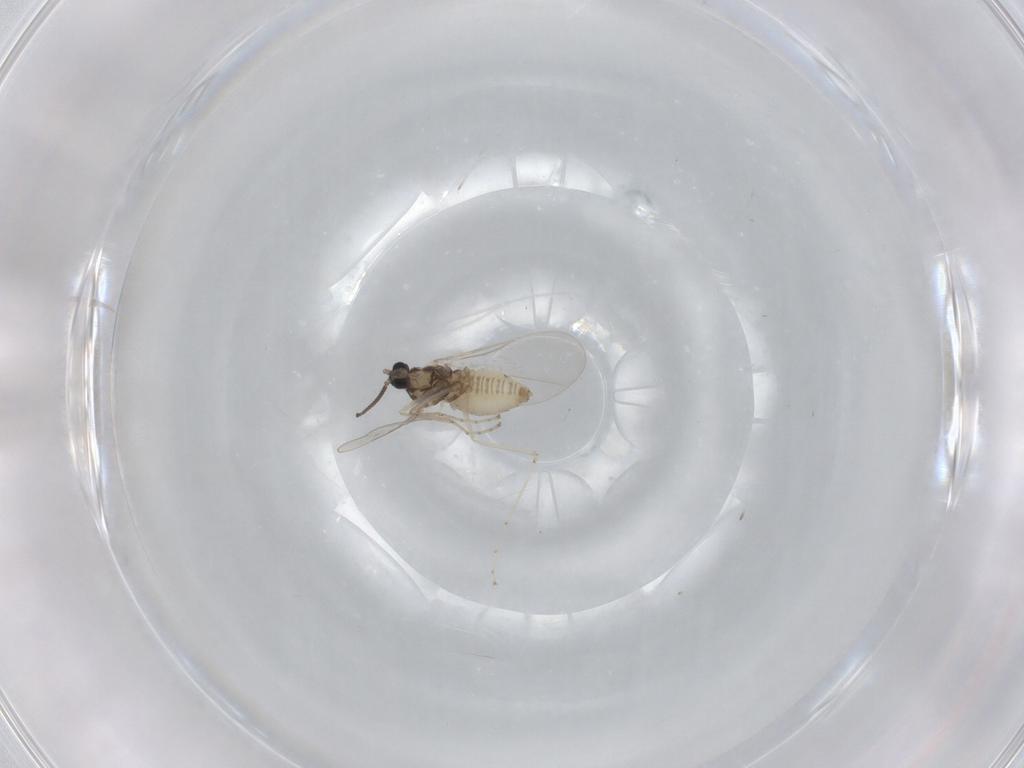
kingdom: Animalia
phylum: Arthropoda
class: Insecta
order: Diptera
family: Cecidomyiidae
